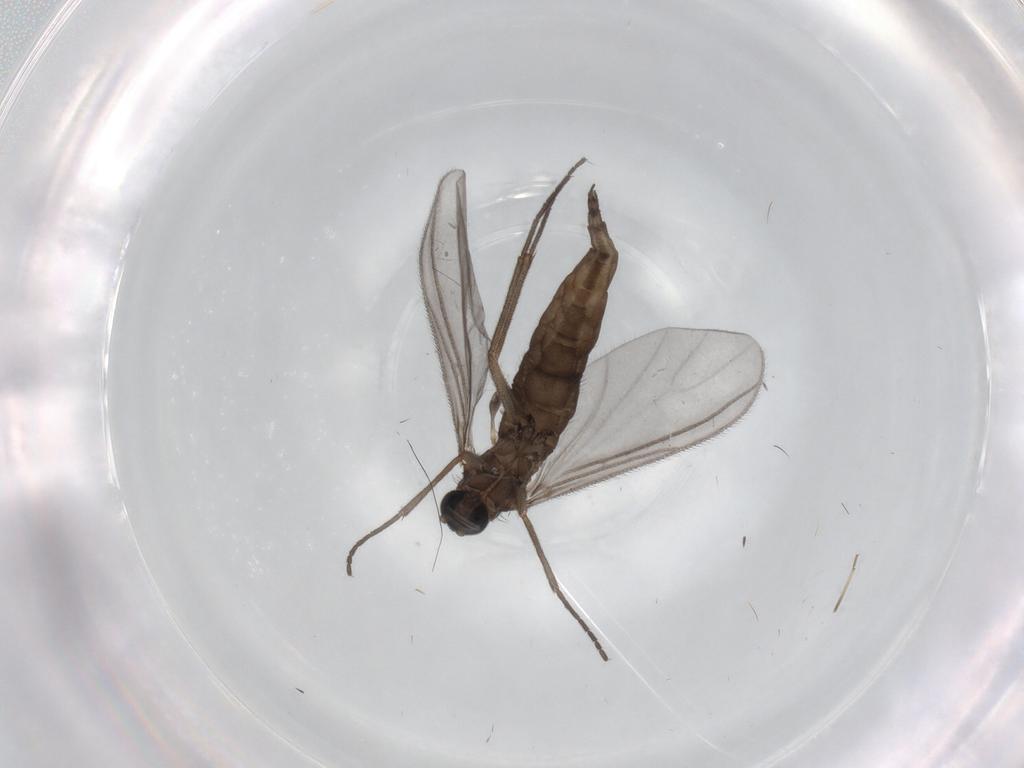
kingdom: Animalia
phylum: Arthropoda
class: Insecta
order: Diptera
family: Sciaridae
